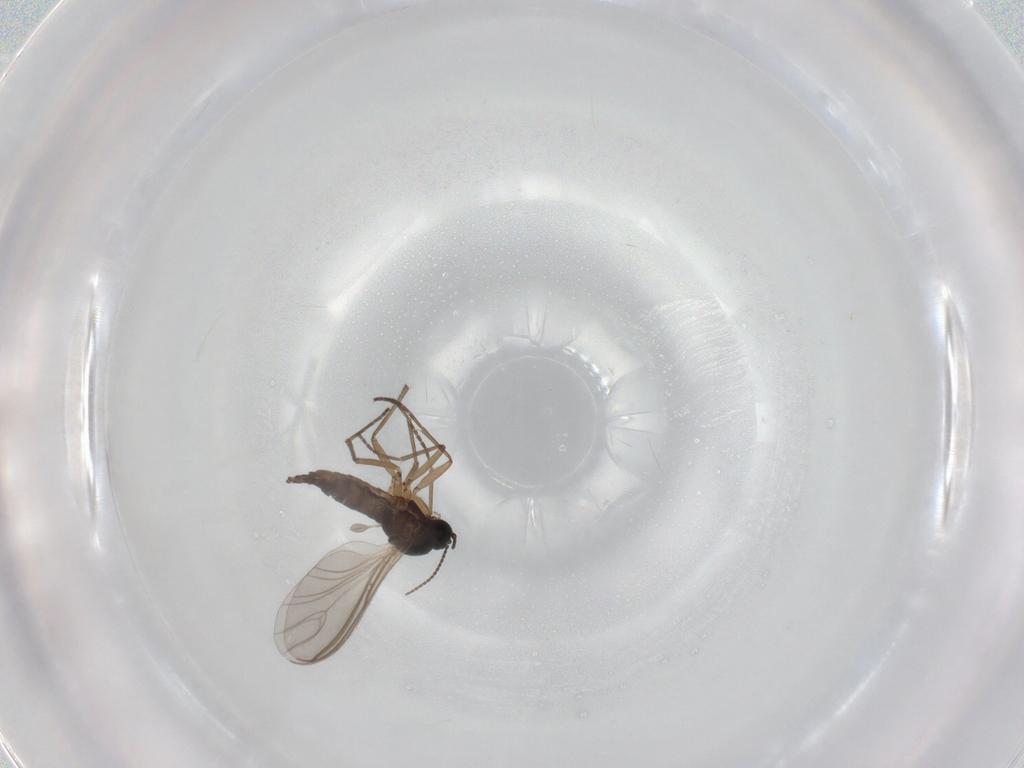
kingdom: Animalia
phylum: Arthropoda
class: Insecta
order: Diptera
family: Sciaridae
